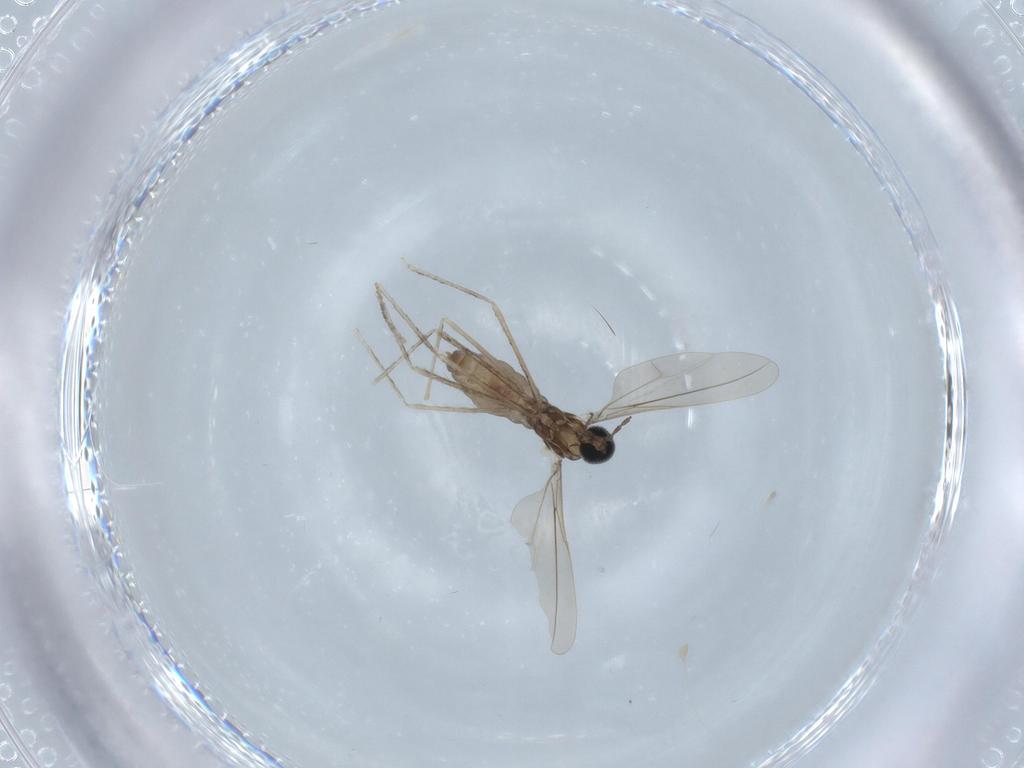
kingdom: Animalia
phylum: Arthropoda
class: Insecta
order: Diptera
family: Cecidomyiidae
